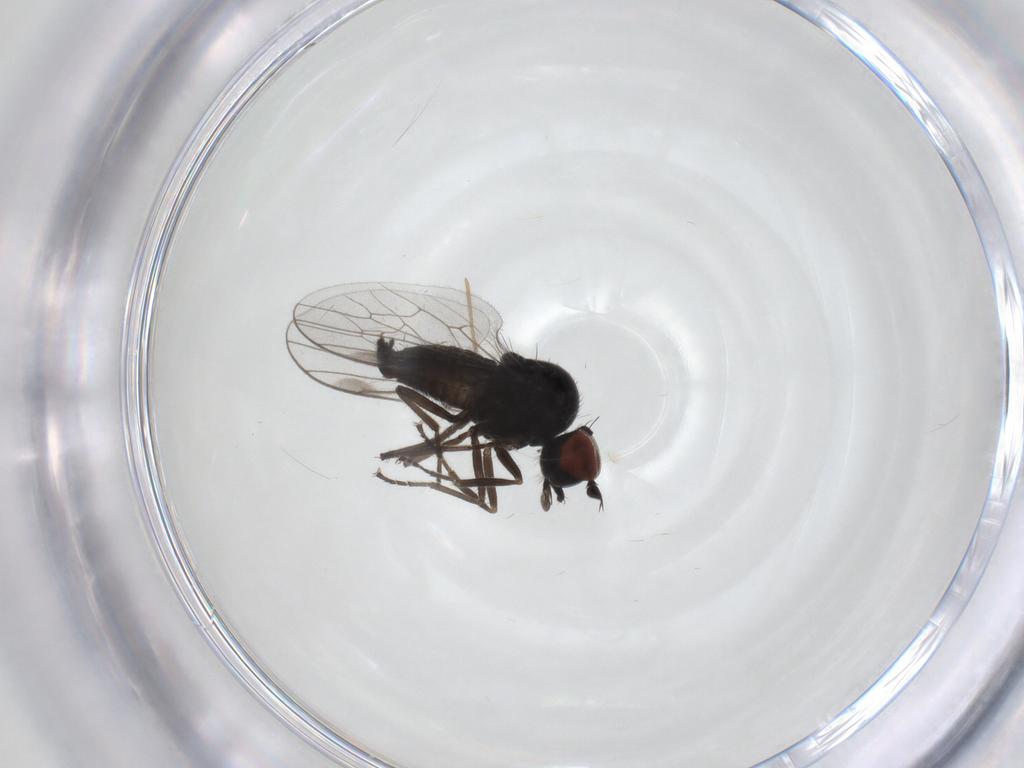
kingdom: Animalia
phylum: Arthropoda
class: Insecta
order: Diptera
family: Hybotidae
